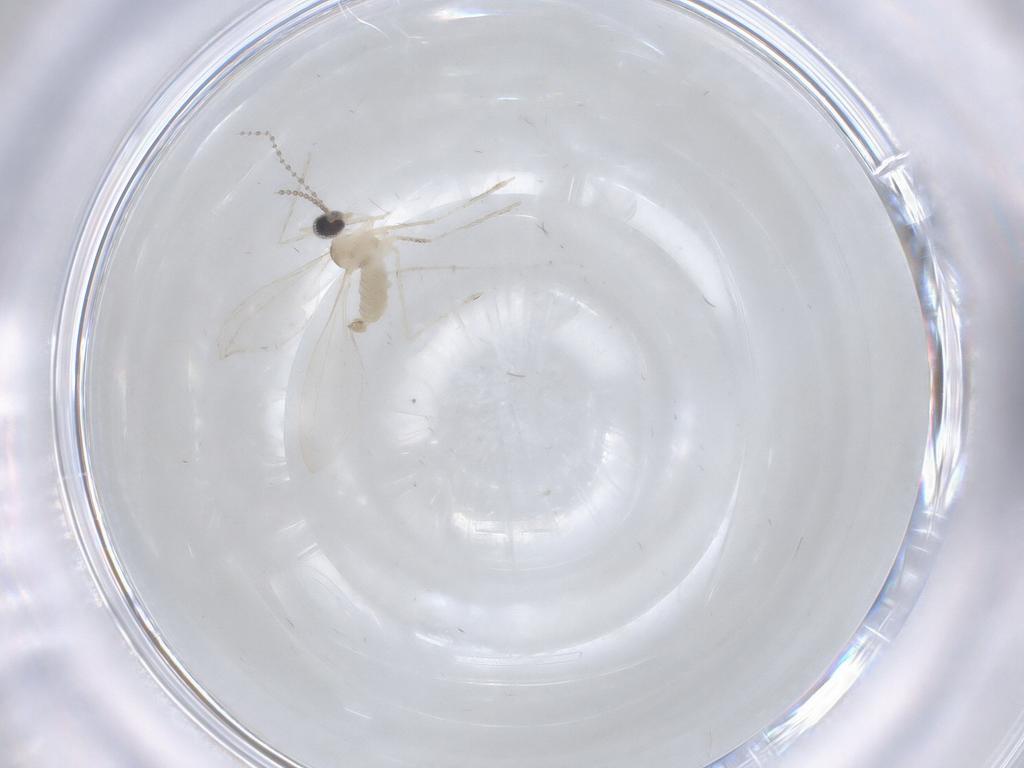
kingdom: Animalia
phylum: Arthropoda
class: Insecta
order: Diptera
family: Cecidomyiidae
